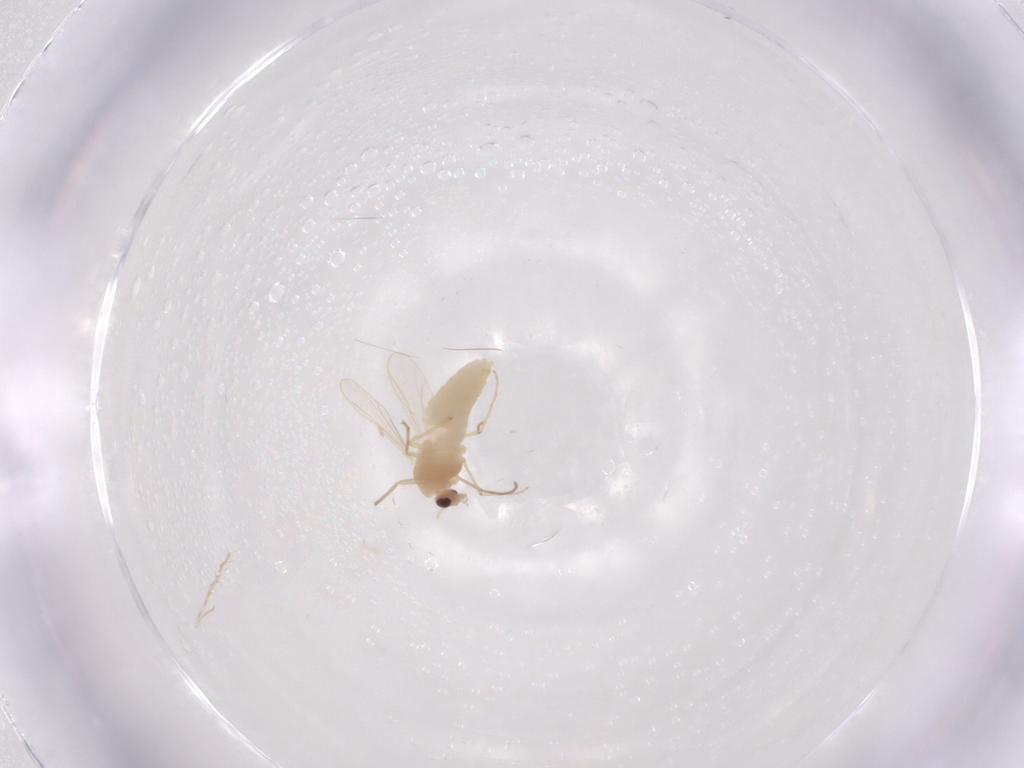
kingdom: Animalia
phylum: Arthropoda
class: Insecta
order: Diptera
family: Chironomidae
